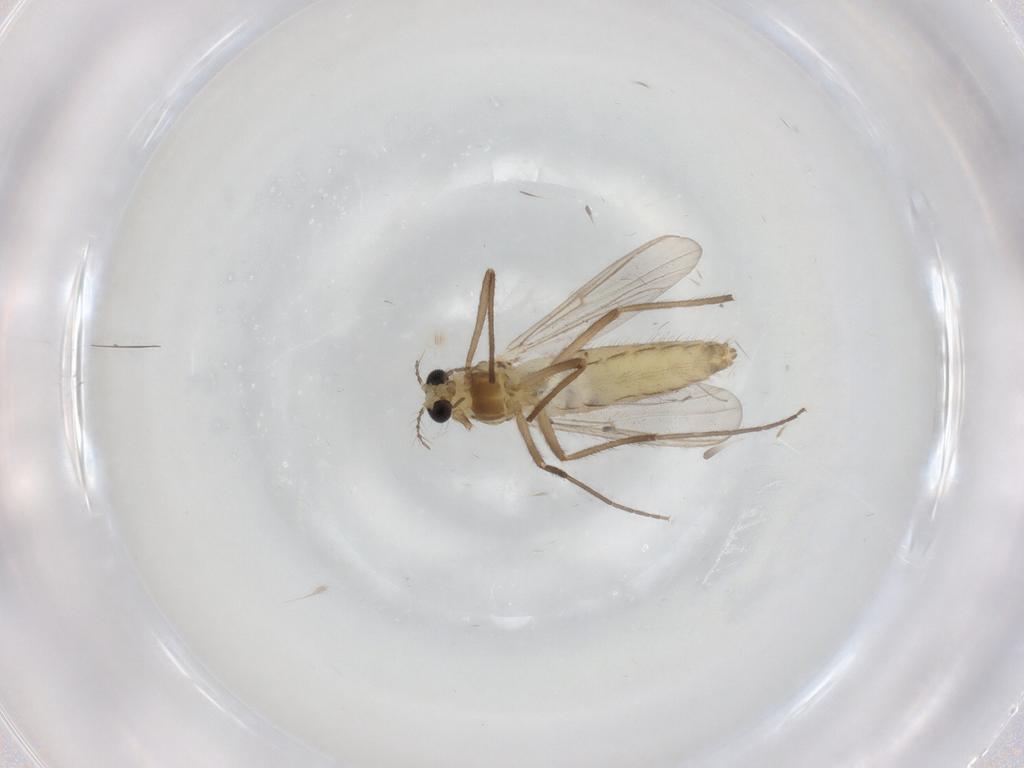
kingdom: Animalia
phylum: Arthropoda
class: Insecta
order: Diptera
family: Chironomidae
